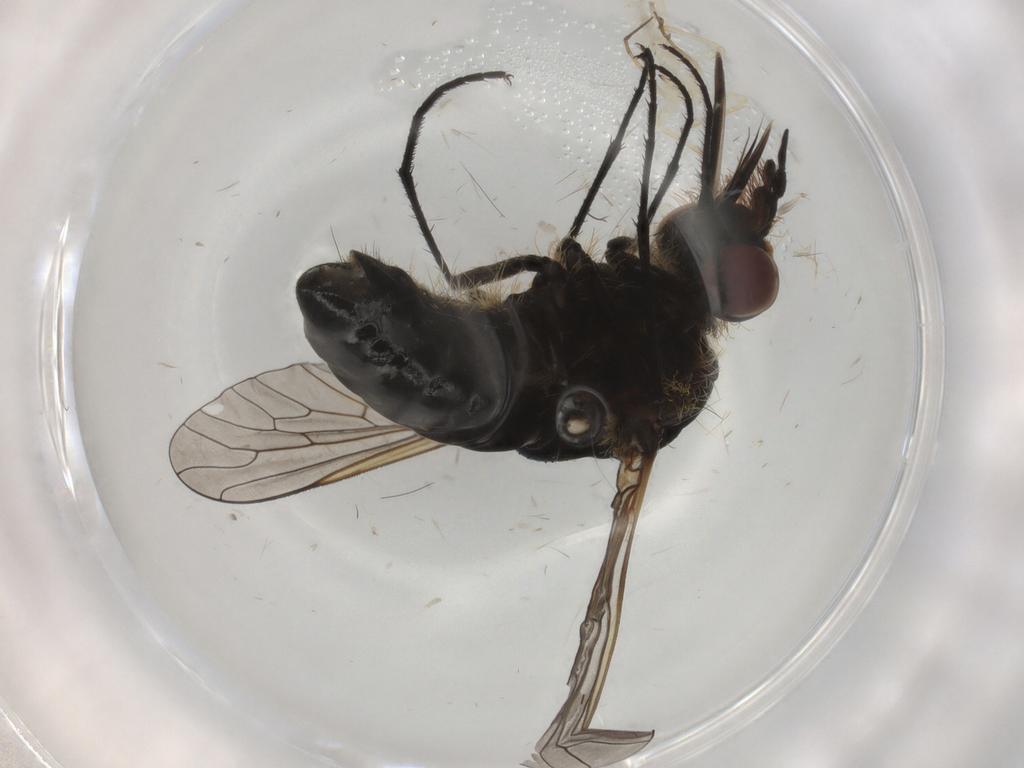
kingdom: Animalia
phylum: Arthropoda
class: Insecta
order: Diptera
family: Bombyliidae
